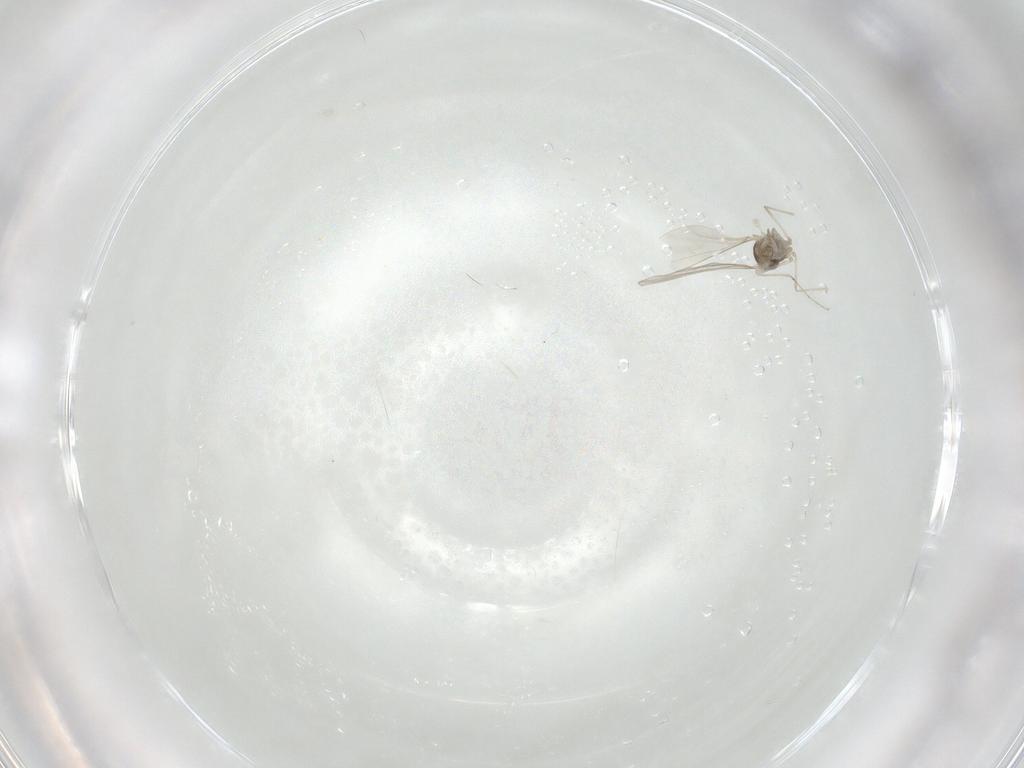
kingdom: Animalia
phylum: Arthropoda
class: Insecta
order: Diptera
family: Cecidomyiidae
